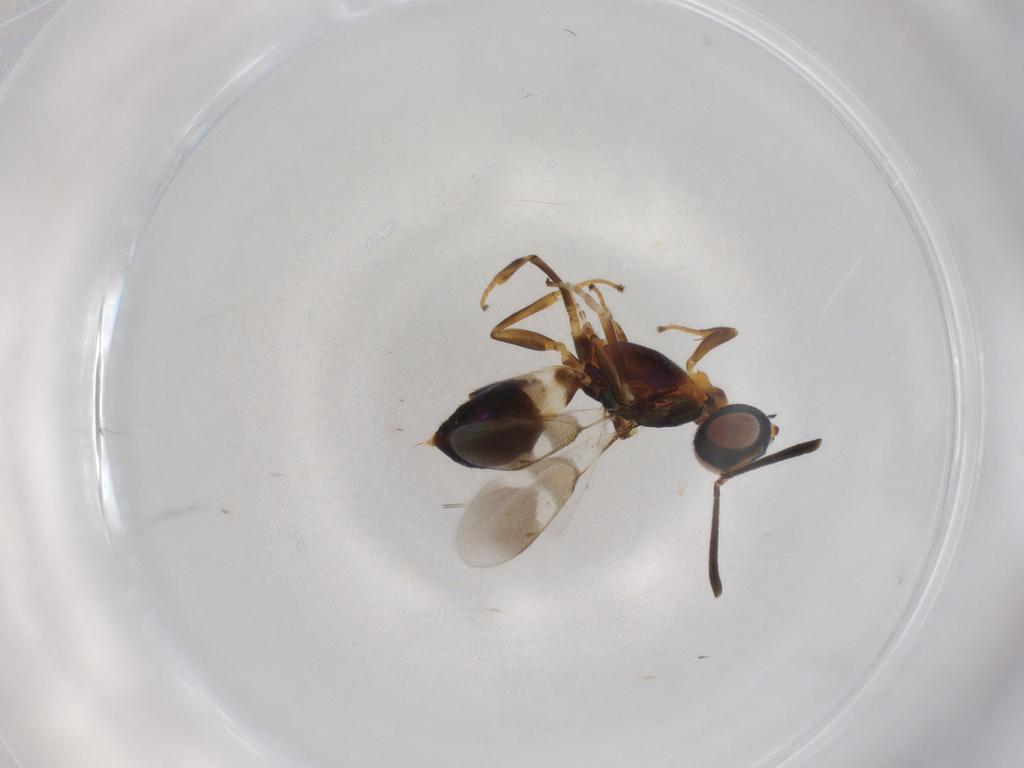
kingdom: Animalia
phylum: Arthropoda
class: Insecta
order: Hymenoptera
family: Eupelmidae
